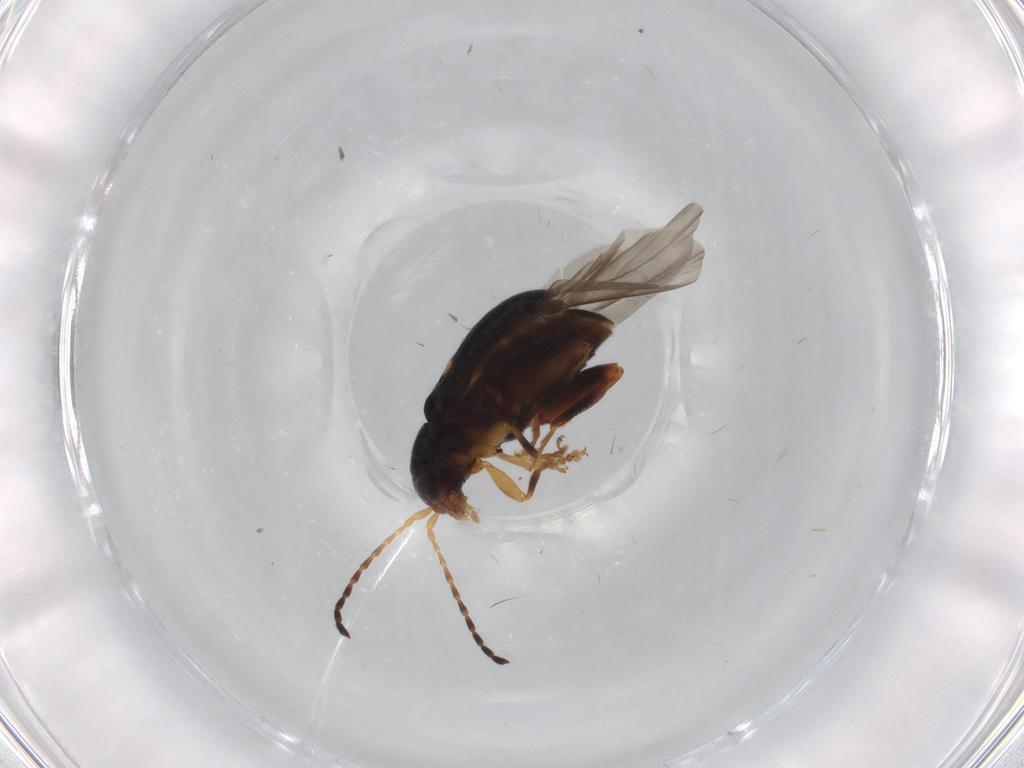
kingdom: Animalia
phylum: Arthropoda
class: Insecta
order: Coleoptera
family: Chrysomelidae
